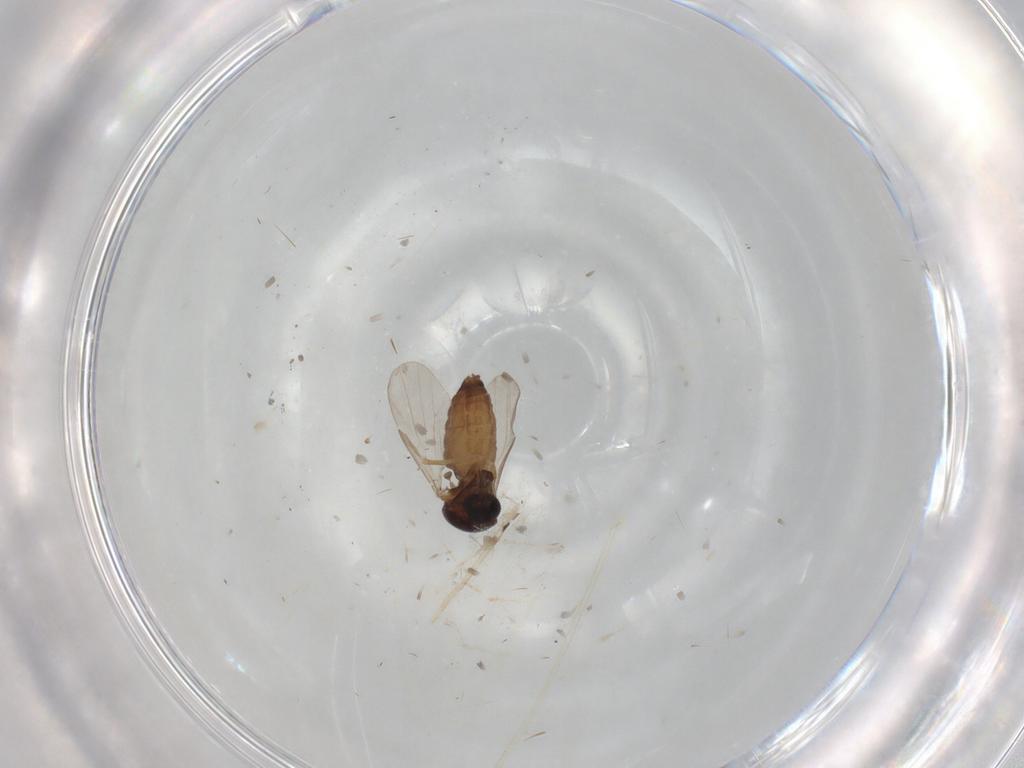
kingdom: Animalia
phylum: Arthropoda
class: Insecta
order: Diptera
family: Ceratopogonidae
